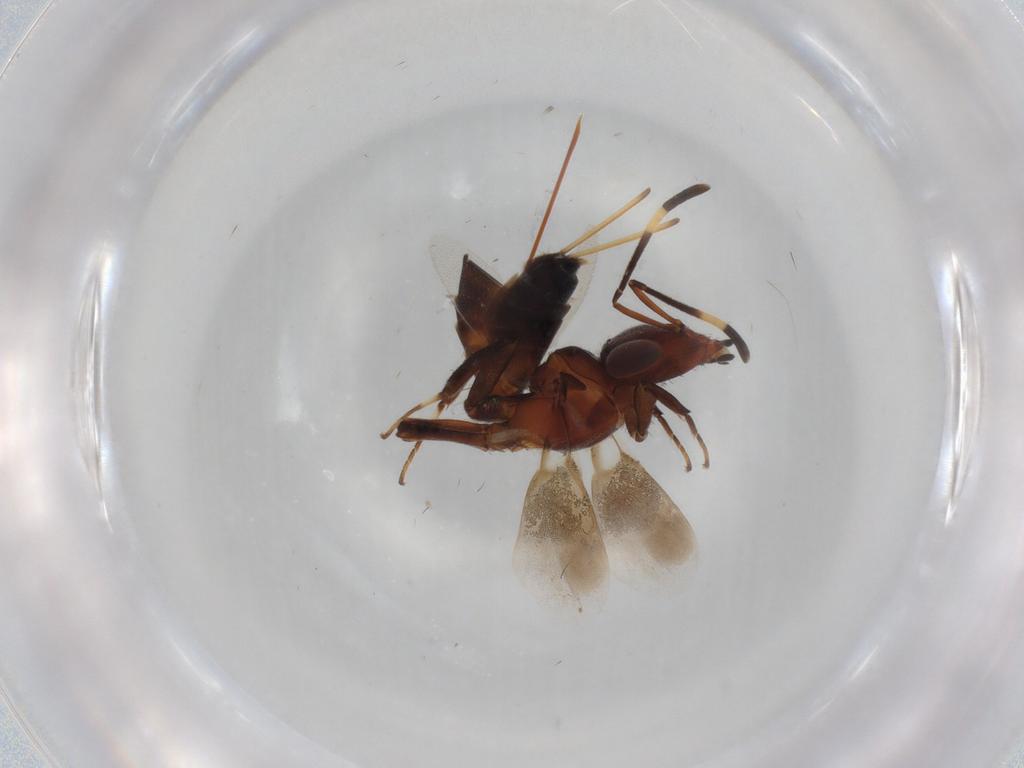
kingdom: Animalia
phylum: Arthropoda
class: Insecta
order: Hymenoptera
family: Eupelmidae
